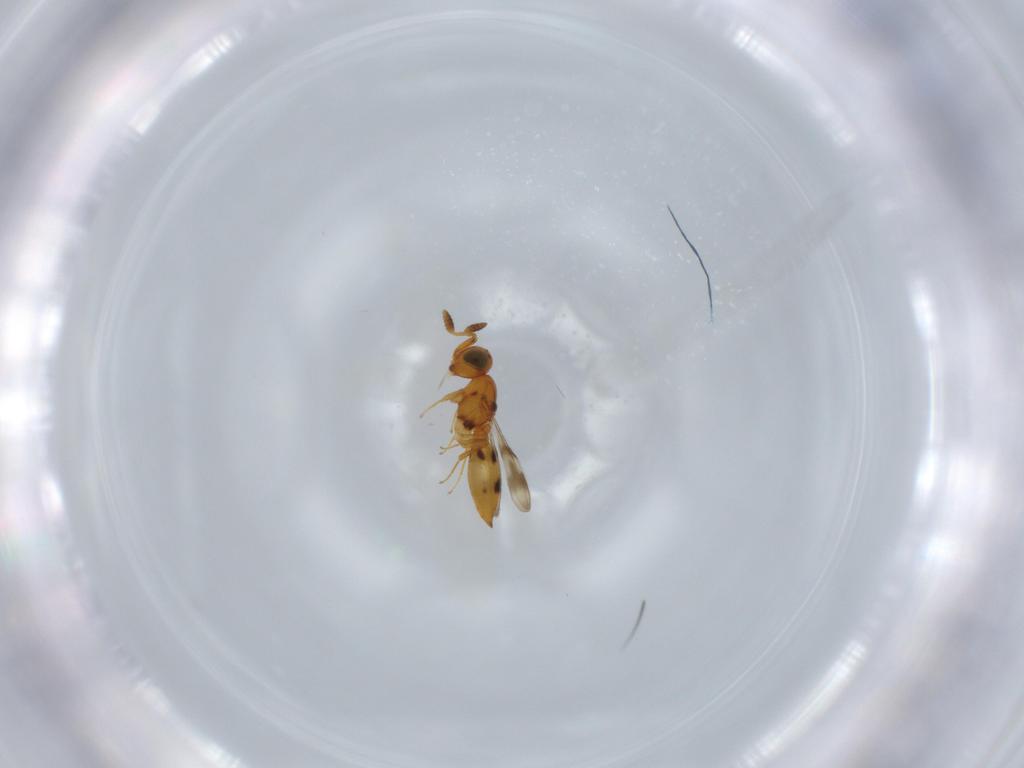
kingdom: Animalia
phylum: Arthropoda
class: Insecta
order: Hymenoptera
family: Scelionidae
